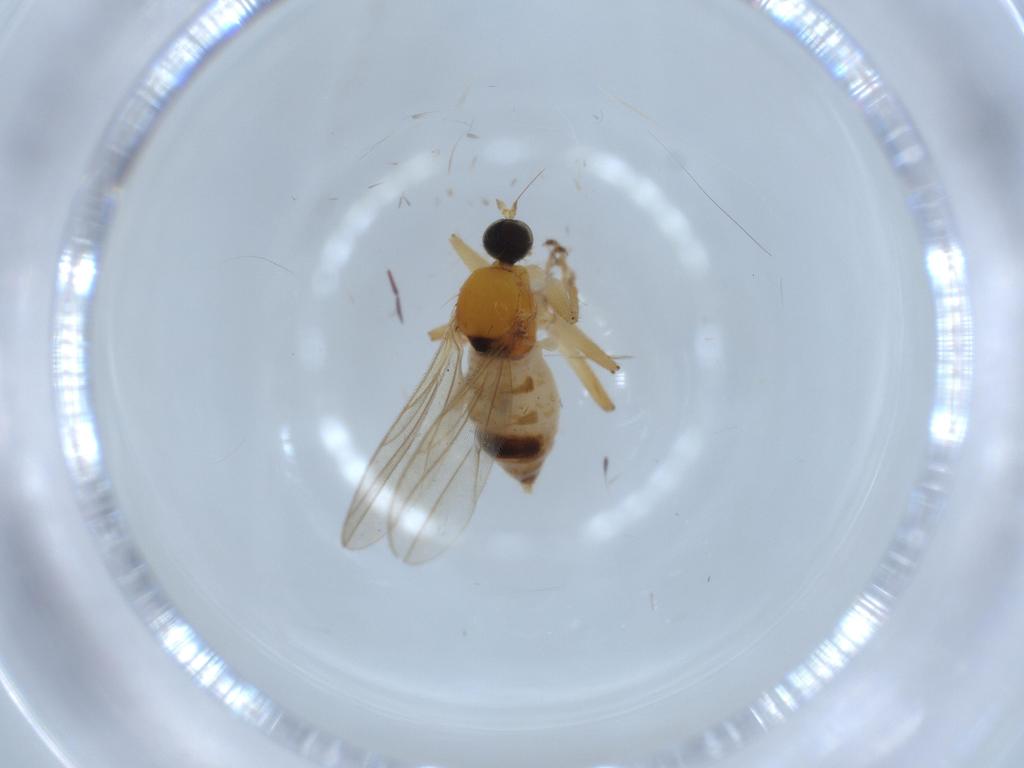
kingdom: Animalia
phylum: Arthropoda
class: Insecta
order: Diptera
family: Hybotidae
